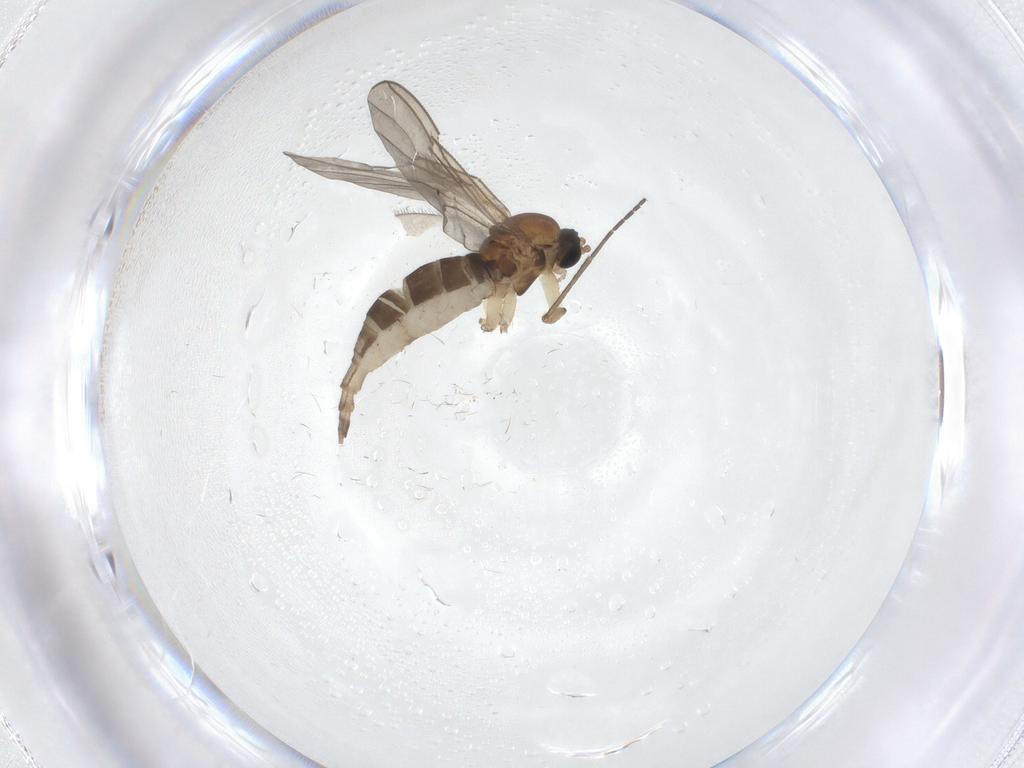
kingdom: Animalia
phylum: Arthropoda
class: Insecta
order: Diptera
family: Sciaridae
